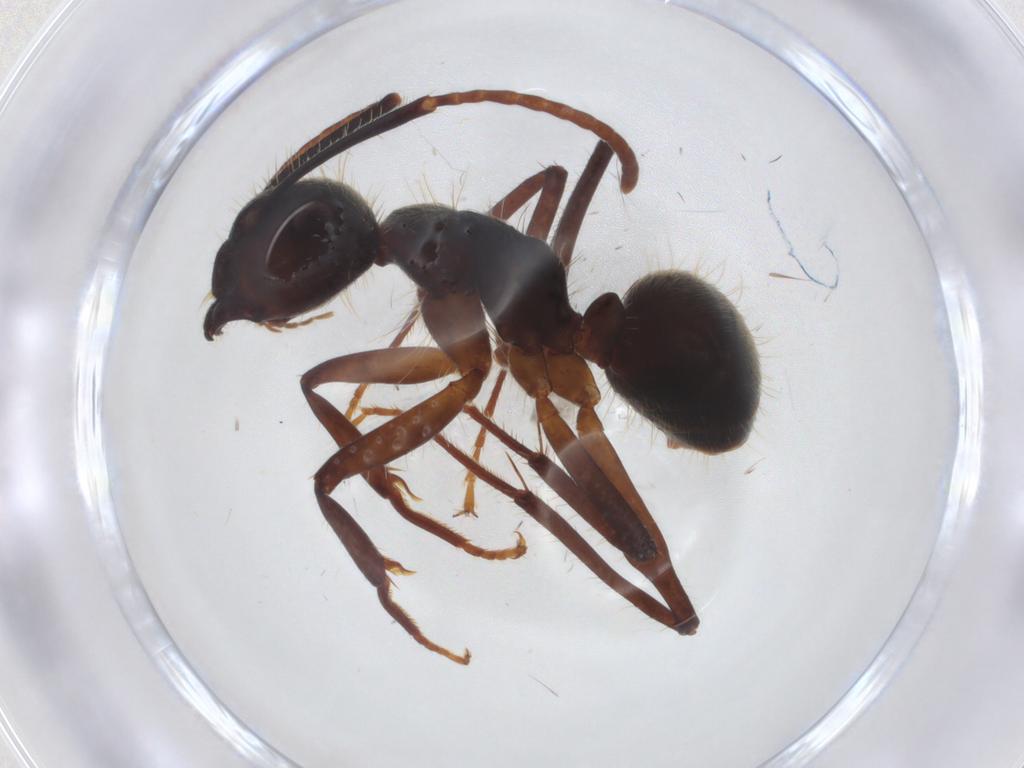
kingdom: Animalia
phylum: Arthropoda
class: Insecta
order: Hymenoptera
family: Formicidae
